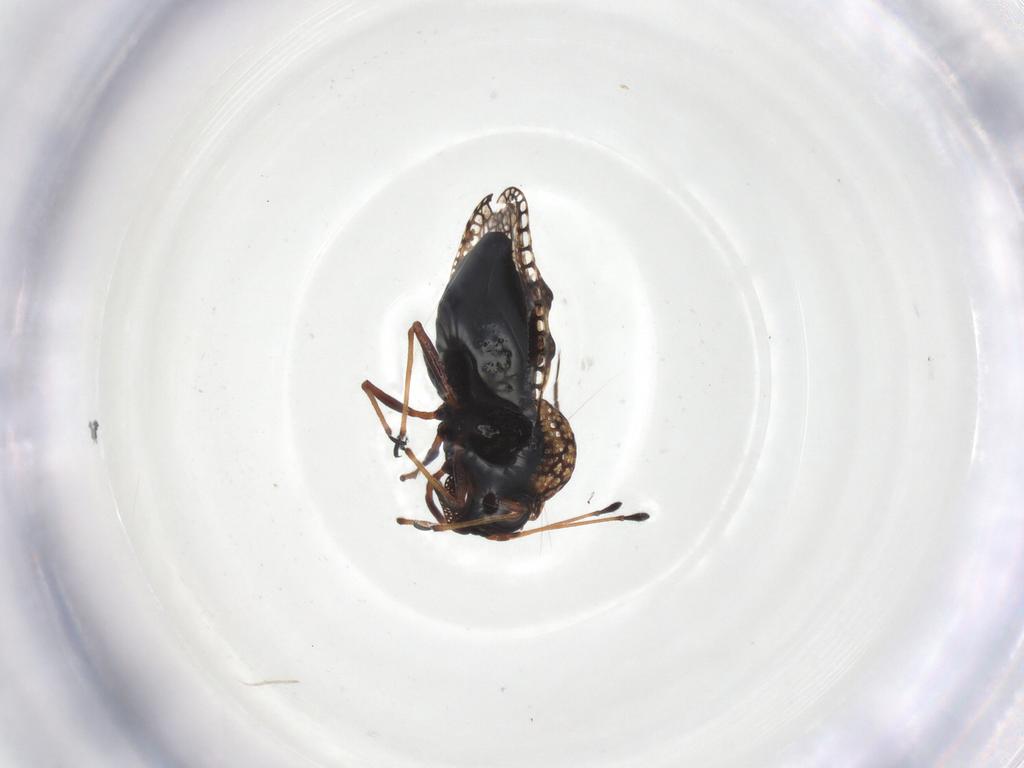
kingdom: Animalia
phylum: Arthropoda
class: Insecta
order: Hemiptera
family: Tingidae
